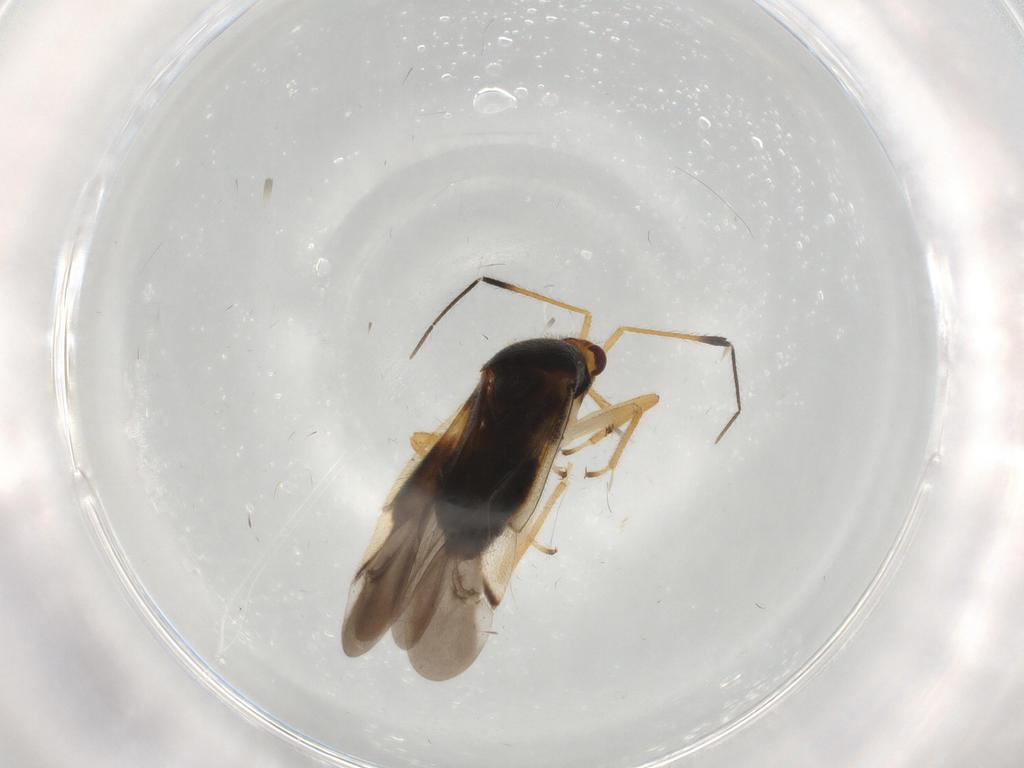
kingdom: Animalia
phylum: Arthropoda
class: Insecta
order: Hemiptera
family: Miridae
